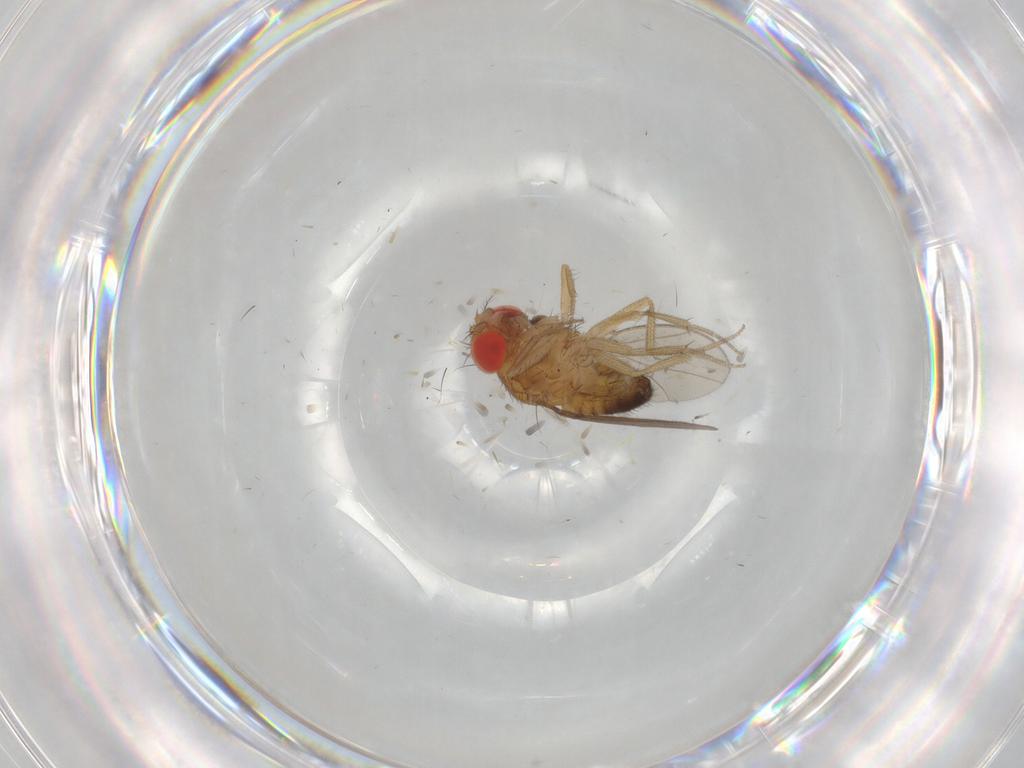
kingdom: Animalia
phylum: Arthropoda
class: Insecta
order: Diptera
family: Drosophilidae
